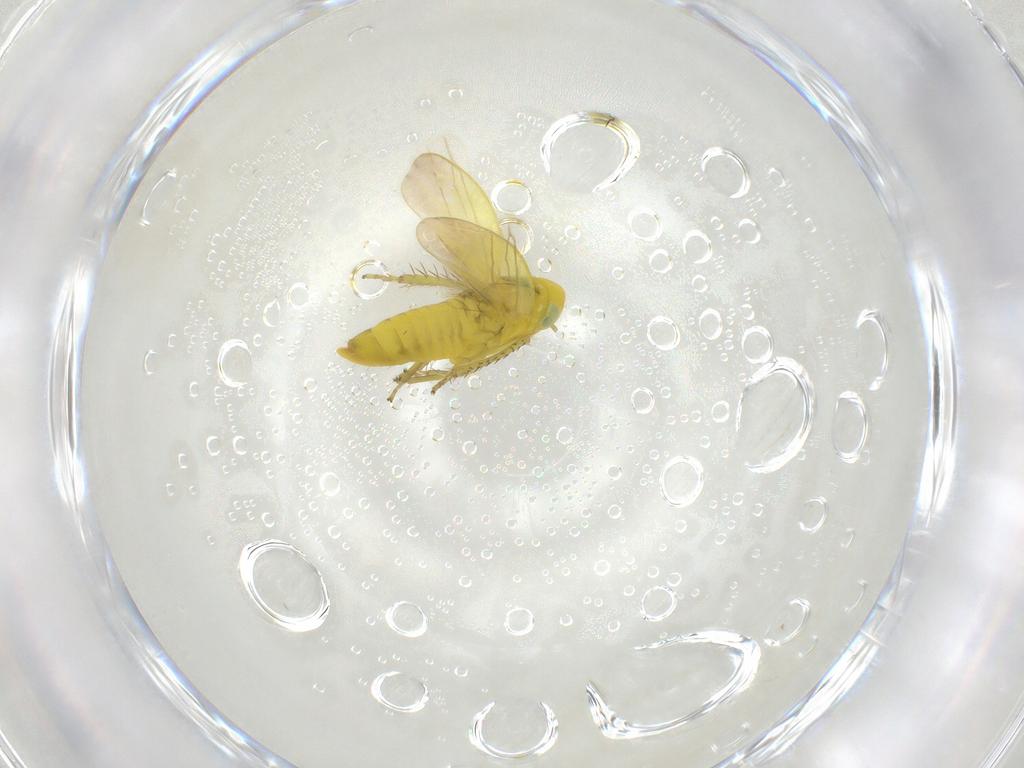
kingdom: Animalia
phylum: Arthropoda
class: Insecta
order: Hemiptera
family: Cicadellidae
